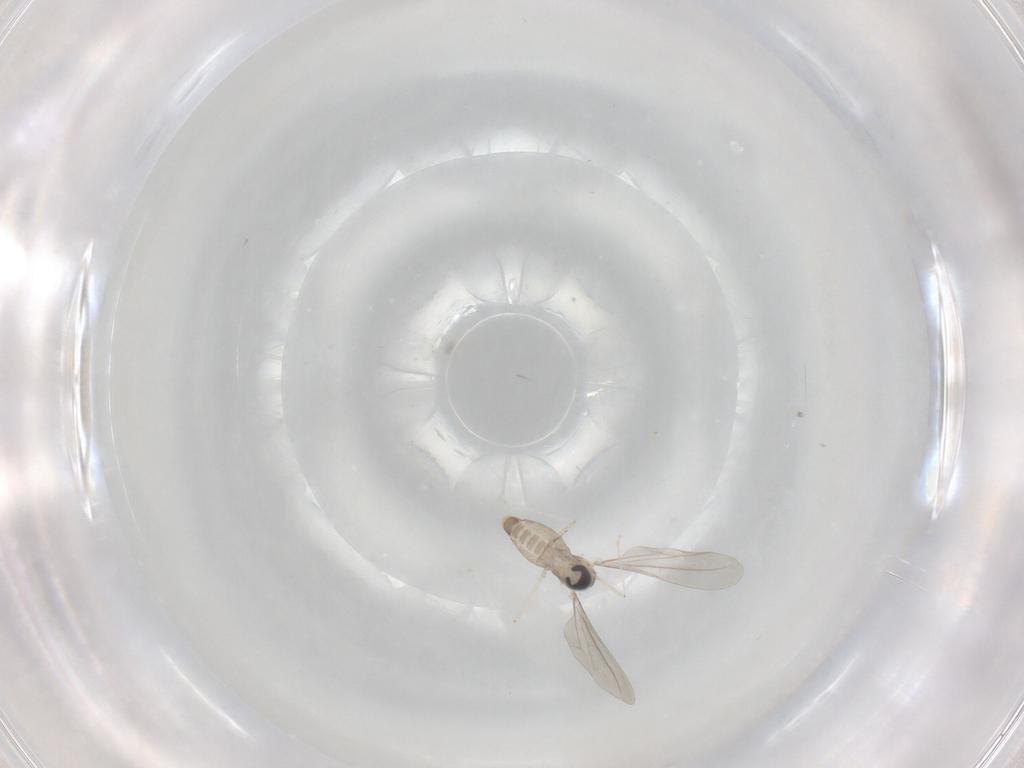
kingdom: Animalia
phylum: Arthropoda
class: Insecta
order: Diptera
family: Sciaridae
